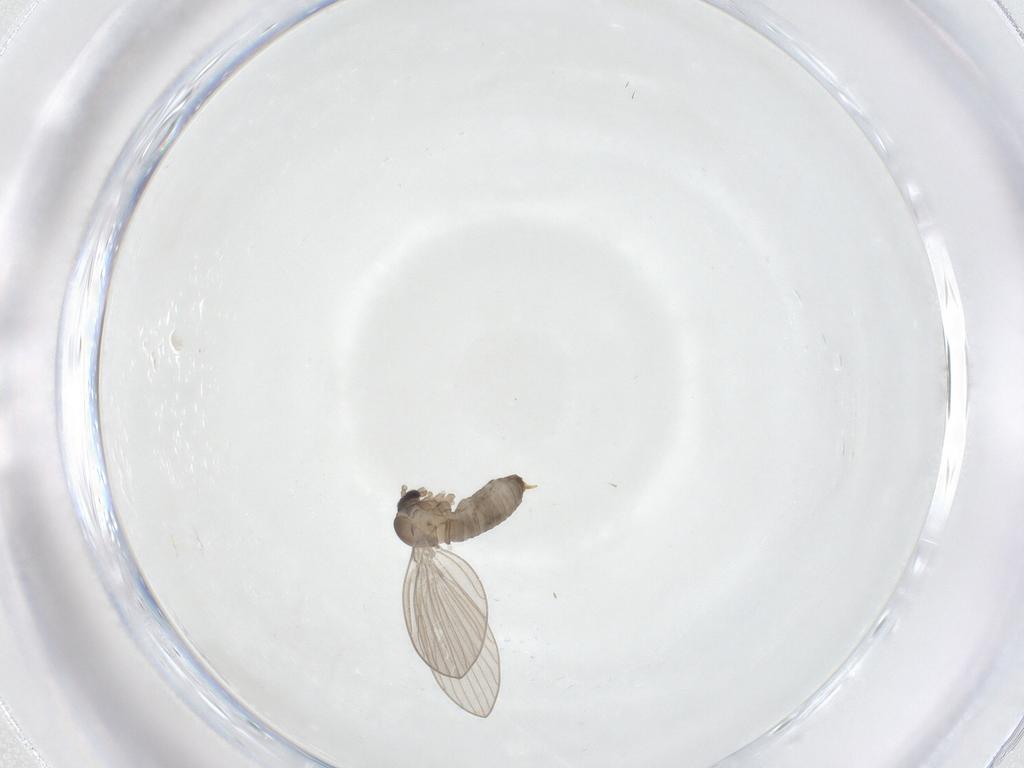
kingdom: Animalia
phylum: Arthropoda
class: Insecta
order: Diptera
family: Psychodidae
